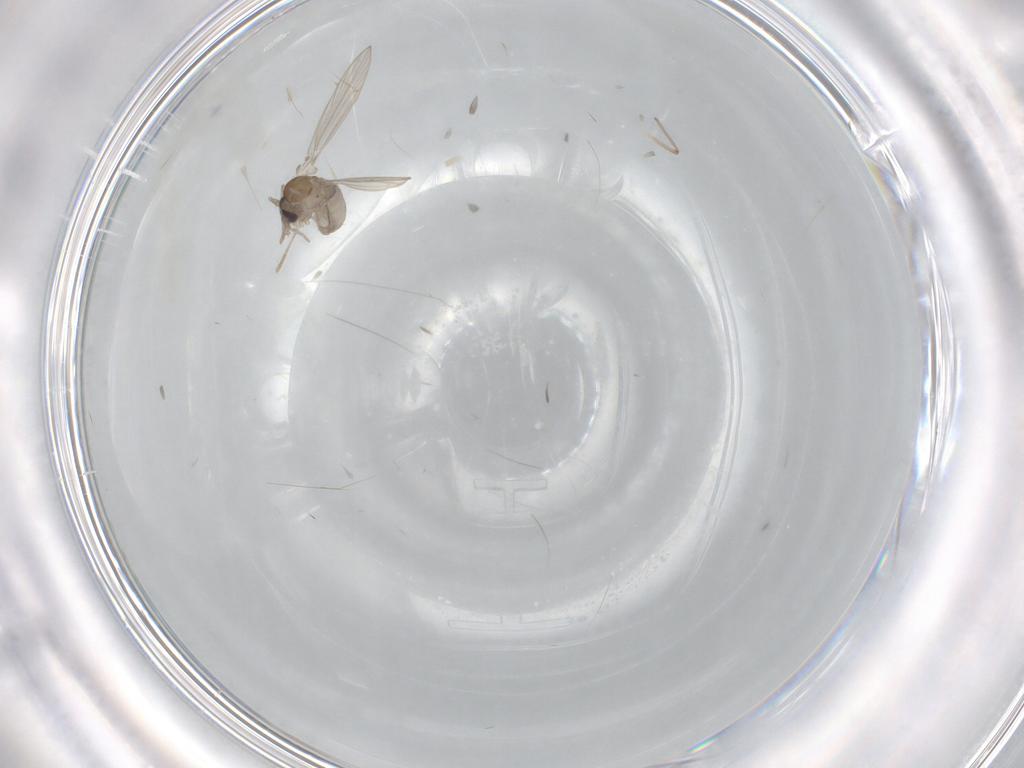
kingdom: Animalia
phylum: Arthropoda
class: Insecta
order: Diptera
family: Psychodidae
